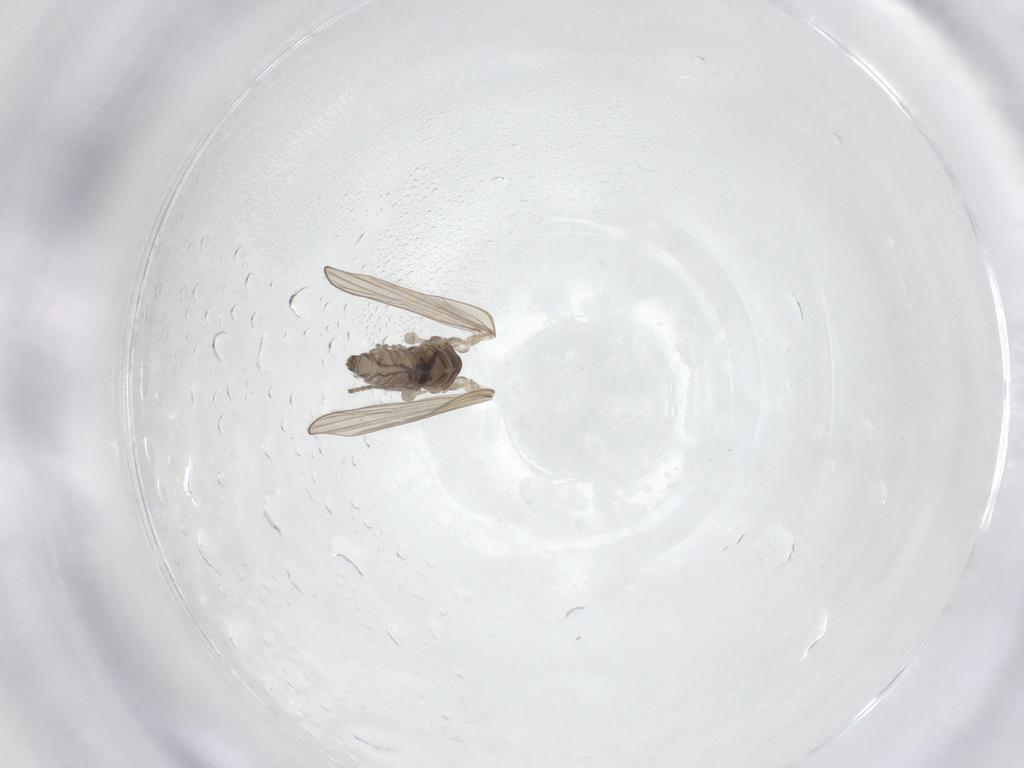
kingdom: Animalia
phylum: Arthropoda
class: Insecta
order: Diptera
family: Psychodidae
